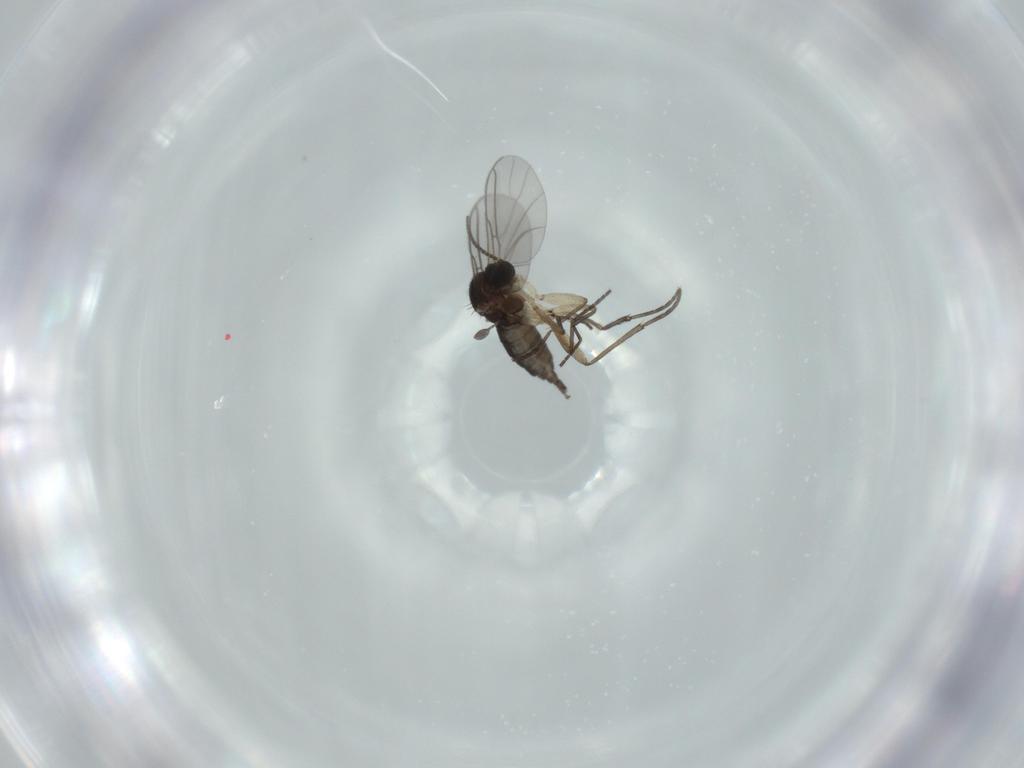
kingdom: Animalia
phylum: Arthropoda
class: Insecta
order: Diptera
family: Sciaridae
